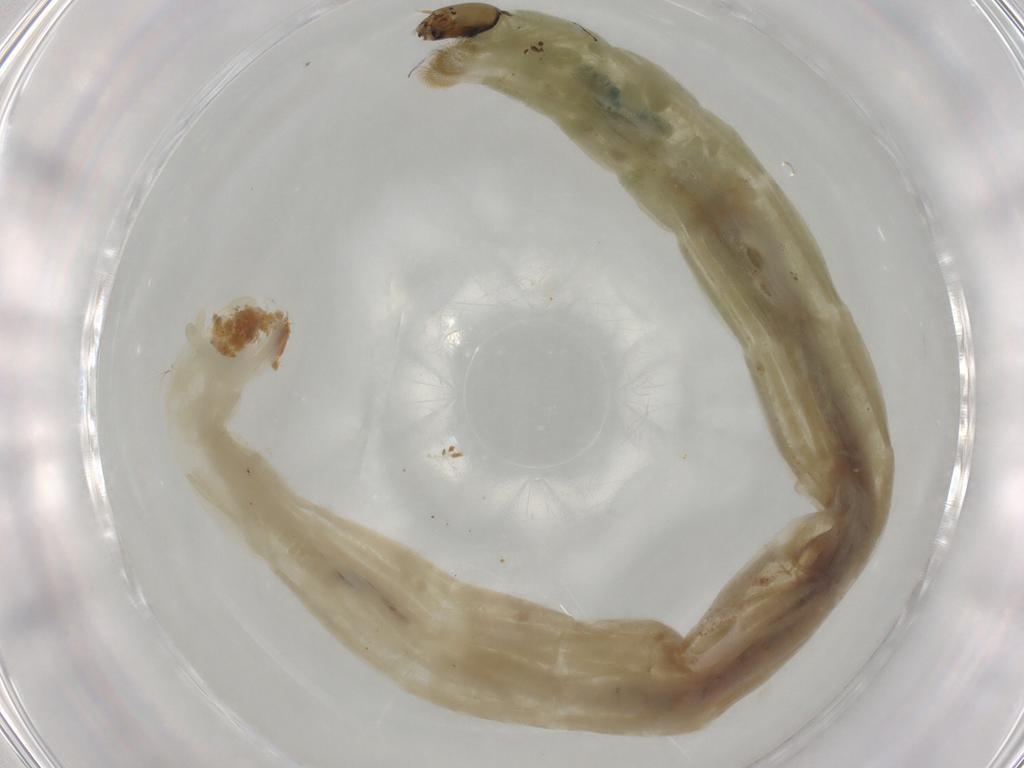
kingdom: Animalia
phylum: Arthropoda
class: Insecta
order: Diptera
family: Chironomidae
